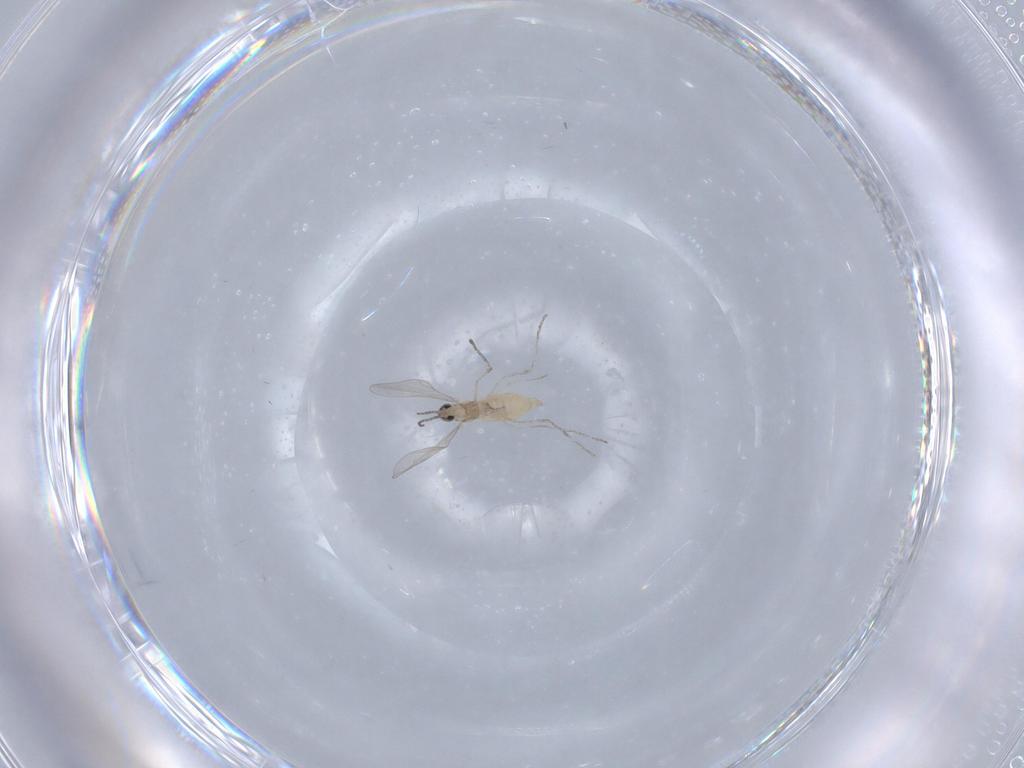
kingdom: Animalia
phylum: Arthropoda
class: Insecta
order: Diptera
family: Cecidomyiidae
